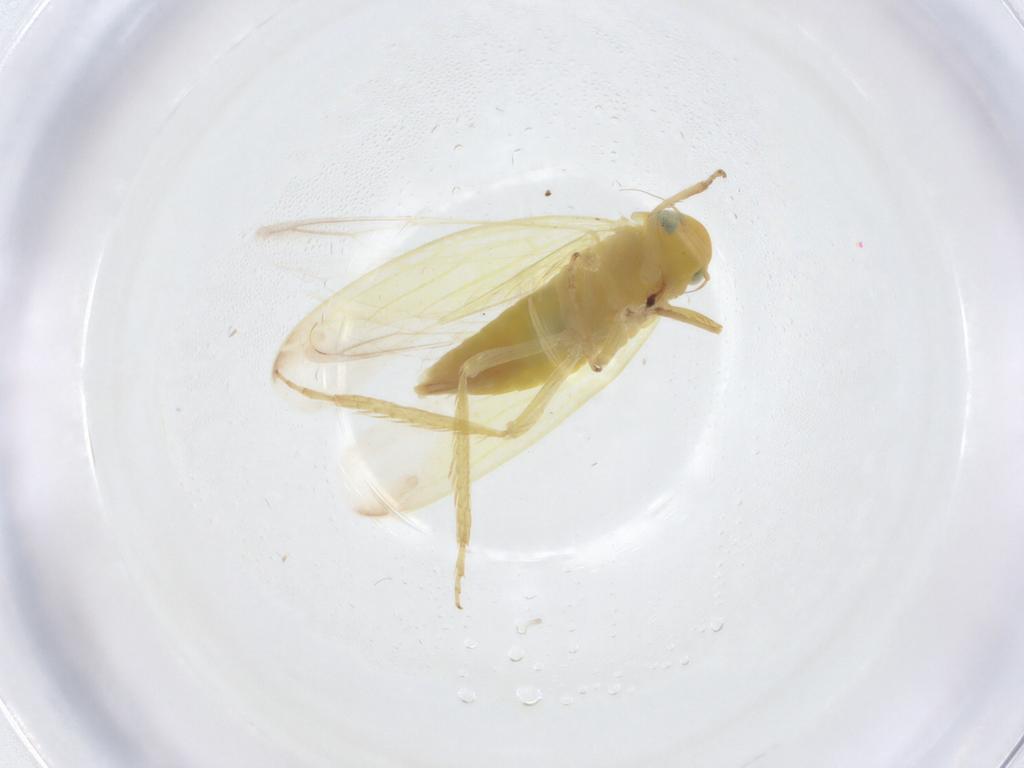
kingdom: Animalia
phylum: Arthropoda
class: Insecta
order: Hemiptera
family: Cicadellidae
